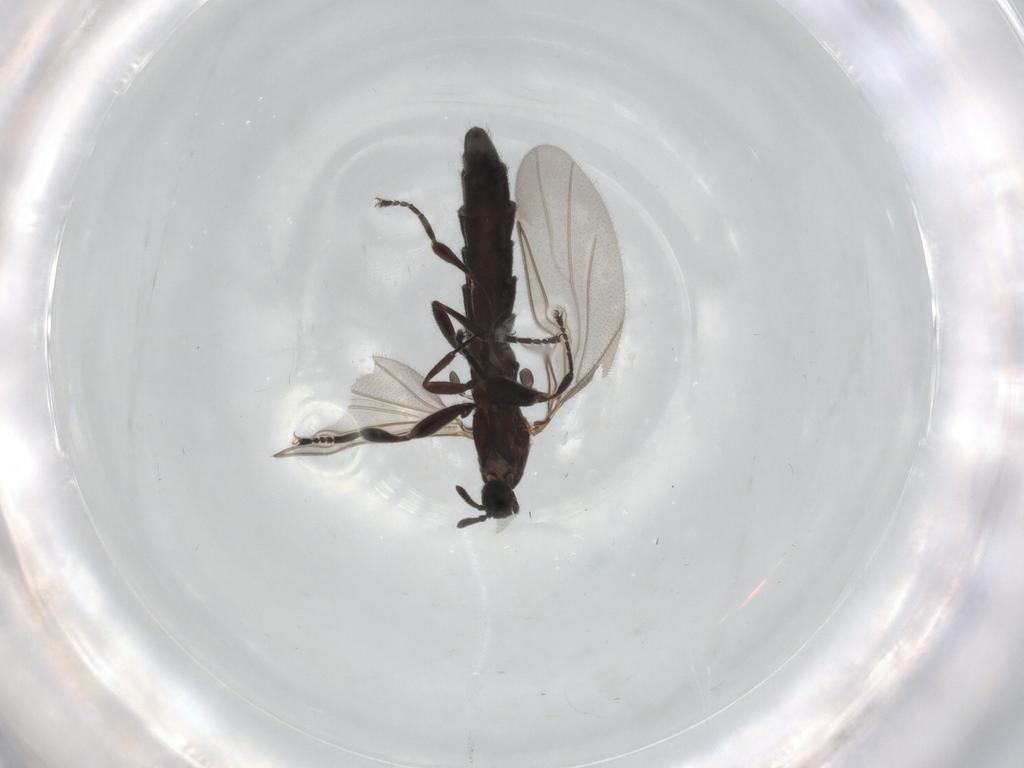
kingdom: Animalia
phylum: Arthropoda
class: Insecta
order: Diptera
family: Scatopsidae
